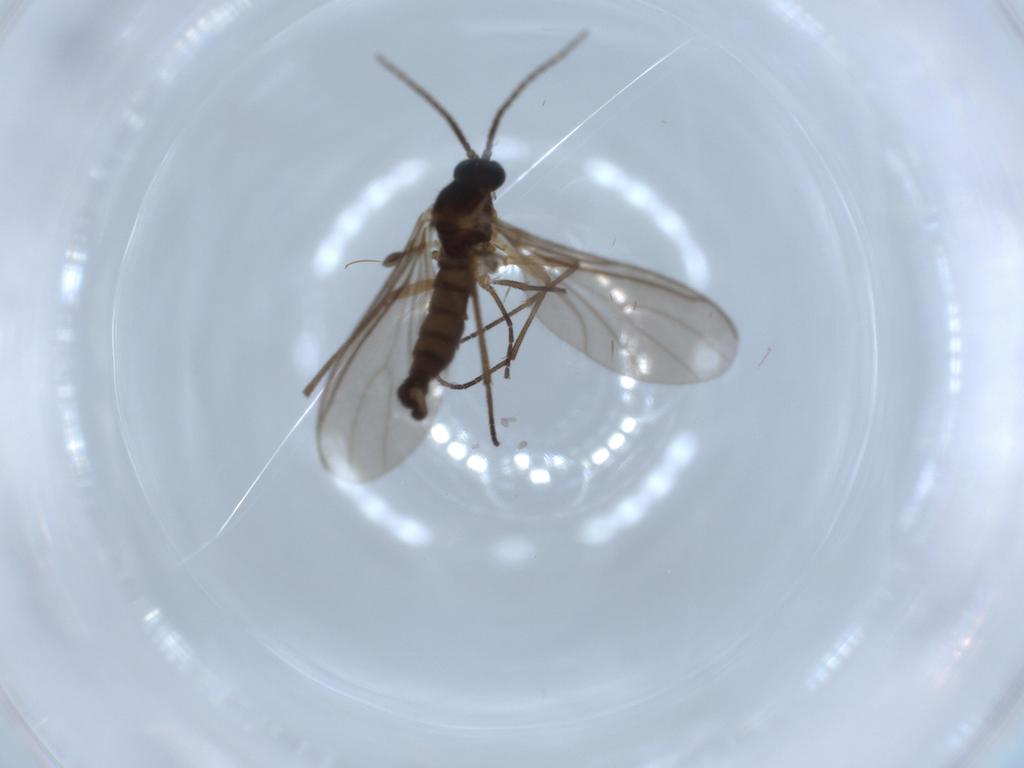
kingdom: Animalia
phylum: Arthropoda
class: Insecta
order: Diptera
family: Sciaridae
